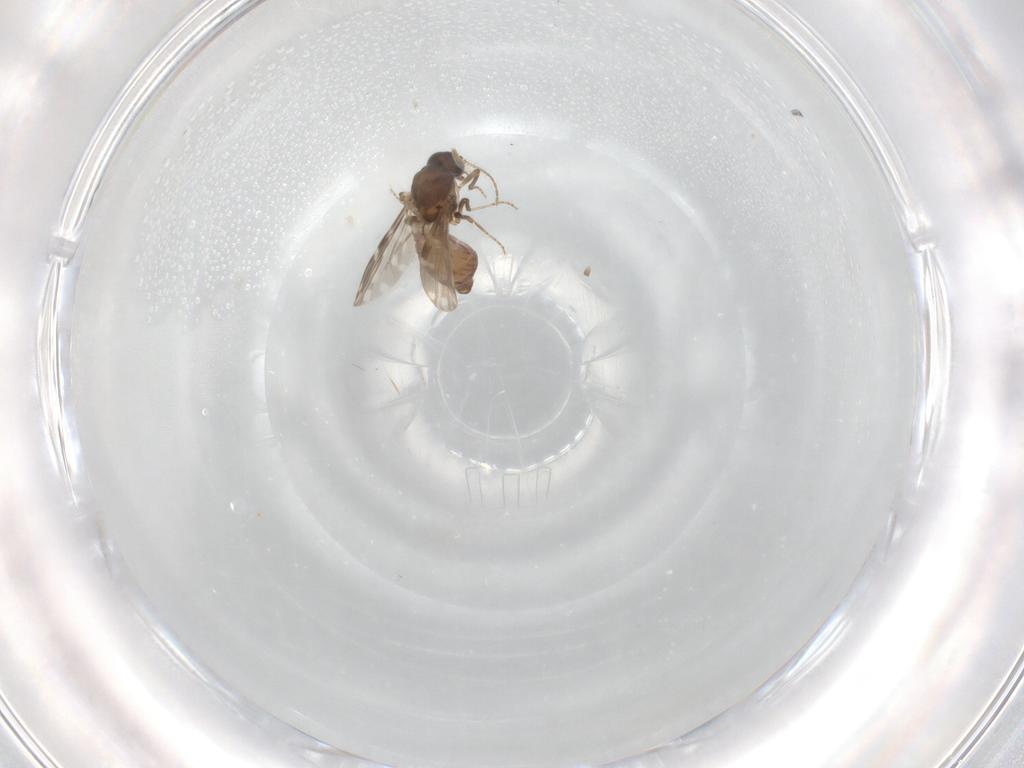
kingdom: Animalia
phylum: Arthropoda
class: Insecta
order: Diptera
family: Ceratopogonidae
